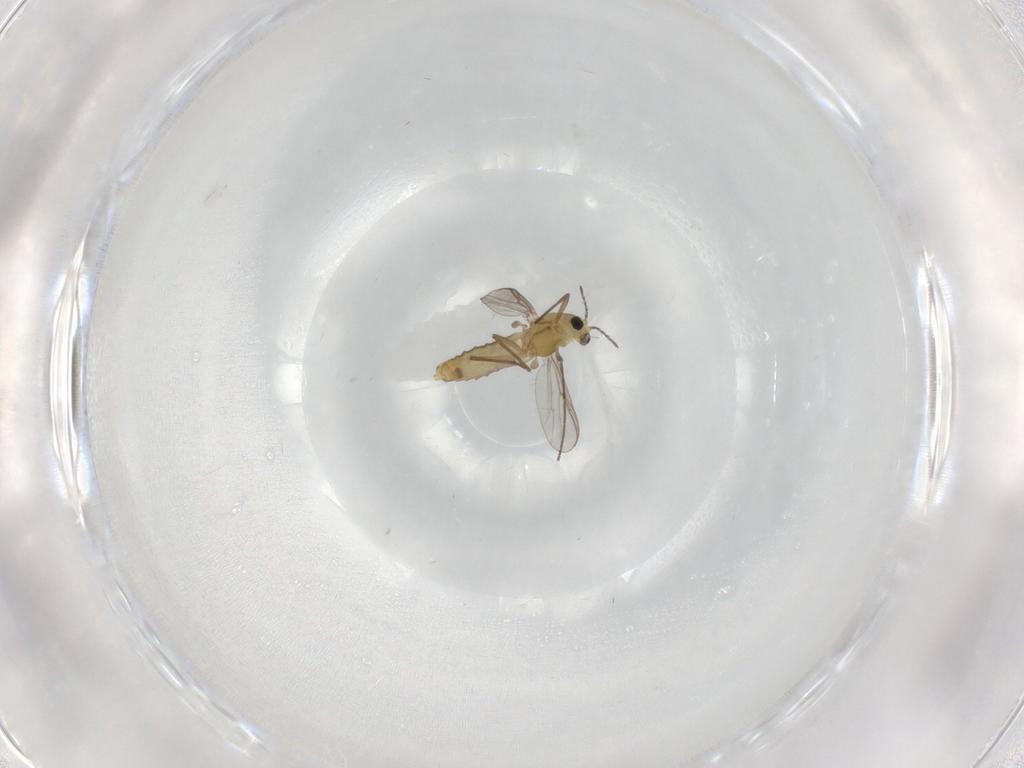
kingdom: Animalia
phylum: Arthropoda
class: Insecta
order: Diptera
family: Chironomidae
